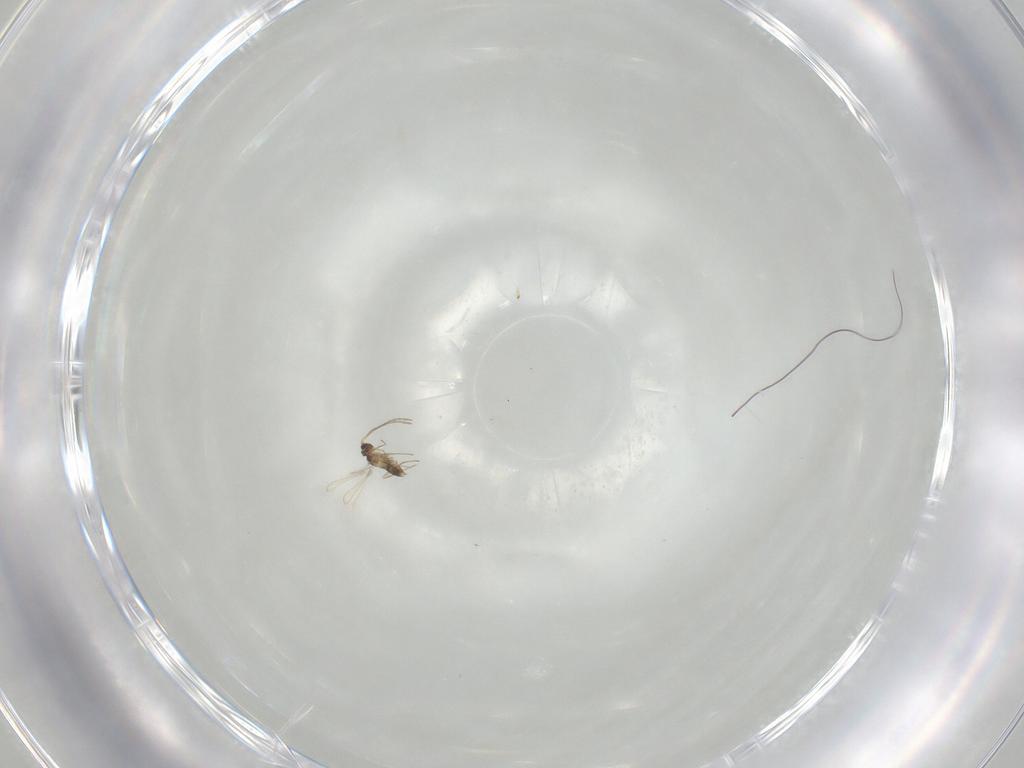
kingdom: Animalia
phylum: Arthropoda
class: Insecta
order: Hymenoptera
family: Mymaridae
